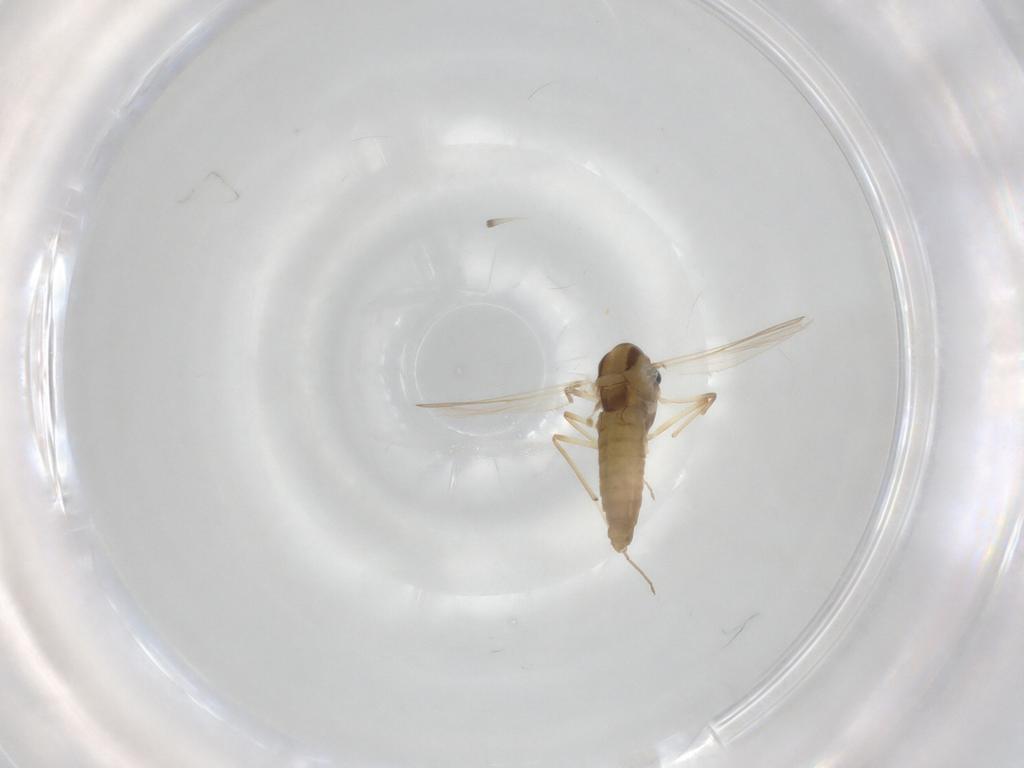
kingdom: Animalia
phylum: Arthropoda
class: Insecta
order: Diptera
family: Chironomidae
